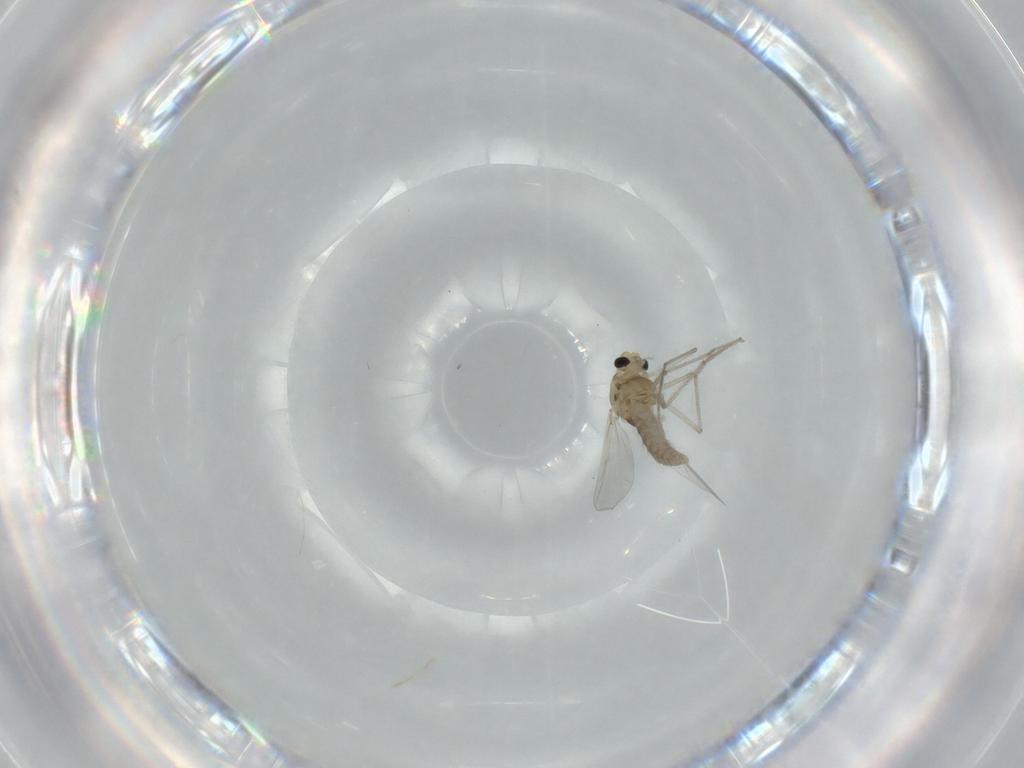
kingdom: Animalia
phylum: Arthropoda
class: Insecta
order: Diptera
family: Chironomidae
